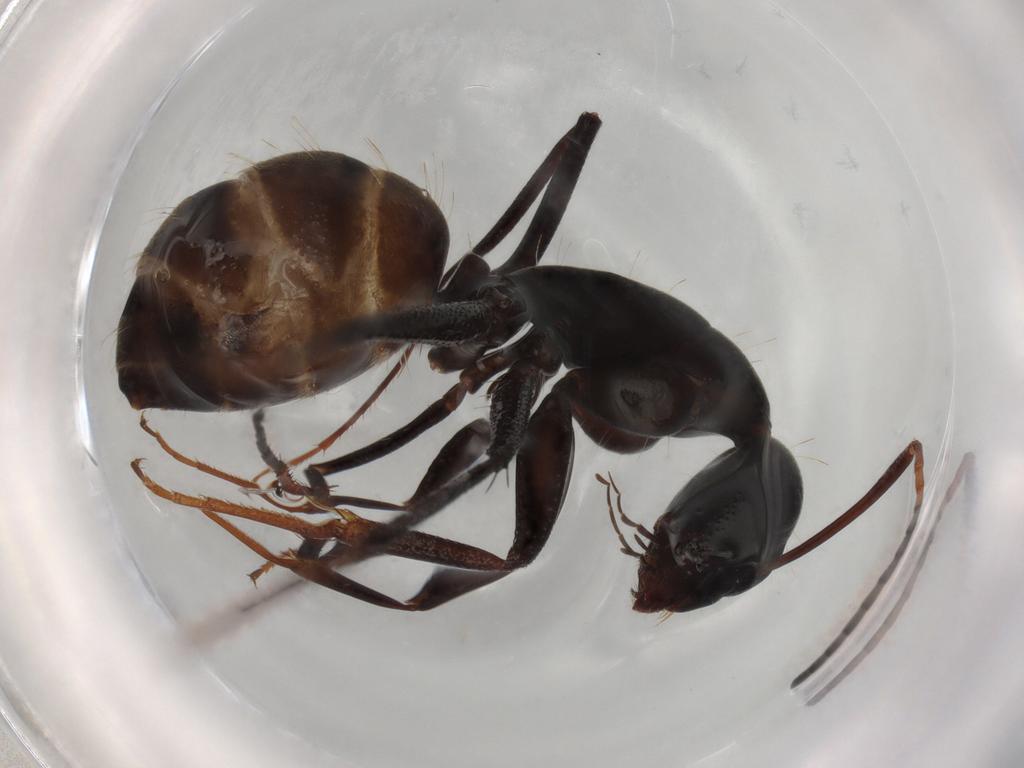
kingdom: Animalia
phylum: Arthropoda
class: Insecta
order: Hymenoptera
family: Formicidae
